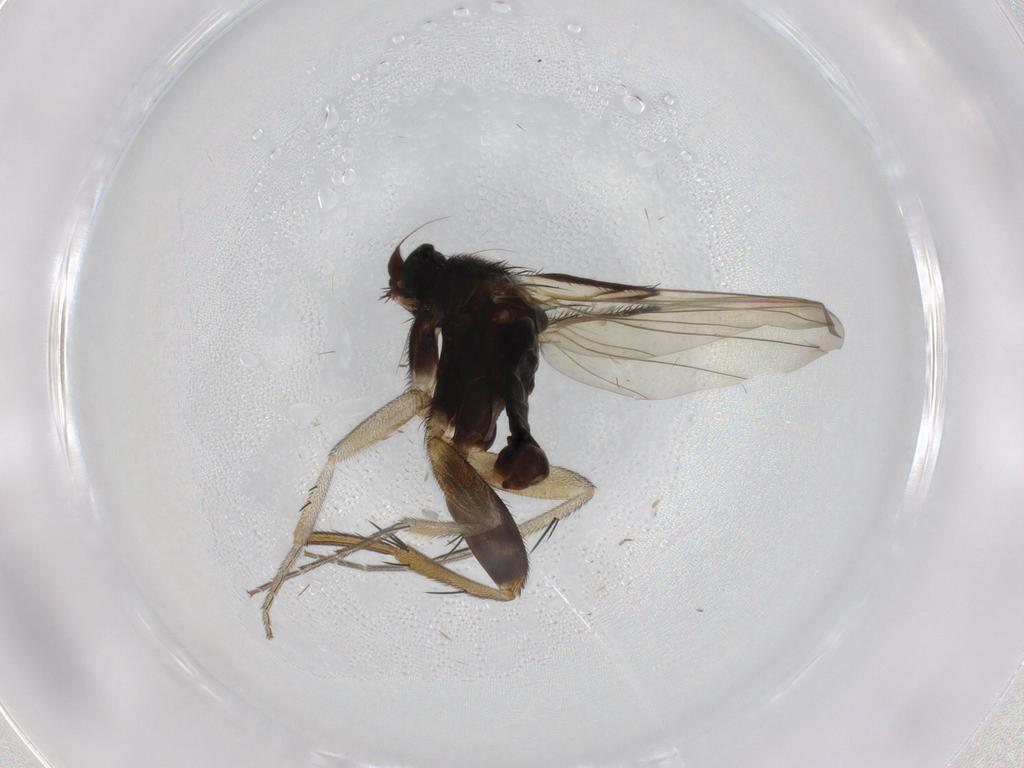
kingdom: Animalia
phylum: Arthropoda
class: Insecta
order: Diptera
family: Phoridae
